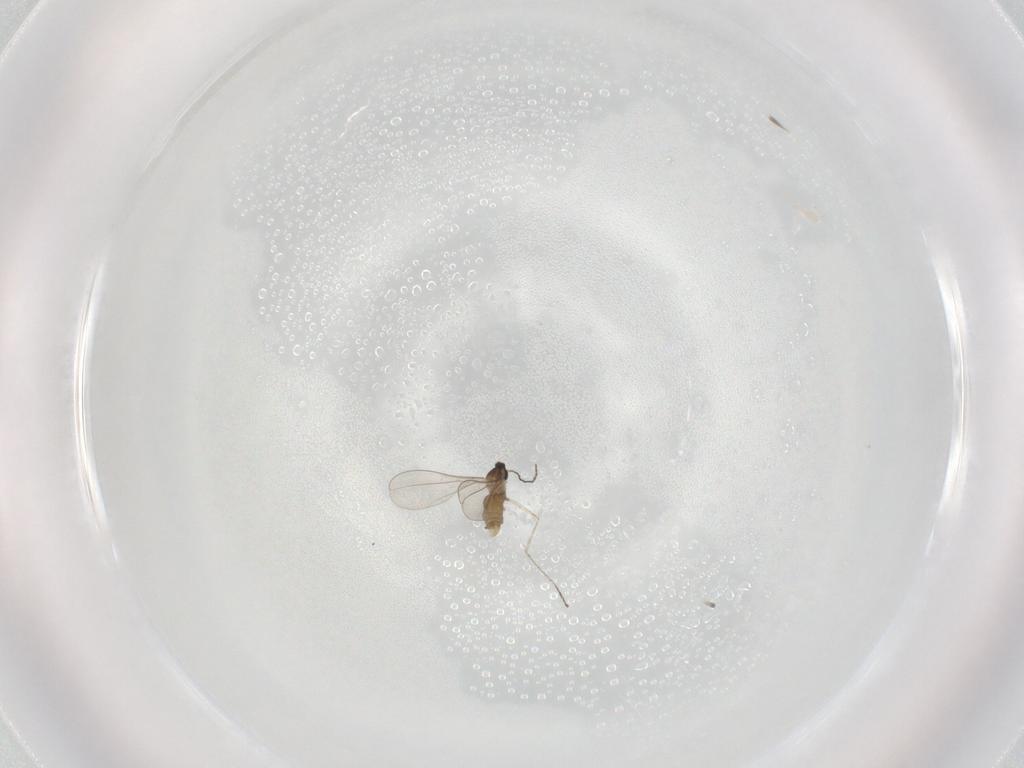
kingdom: Animalia
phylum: Arthropoda
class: Insecta
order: Diptera
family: Cecidomyiidae
